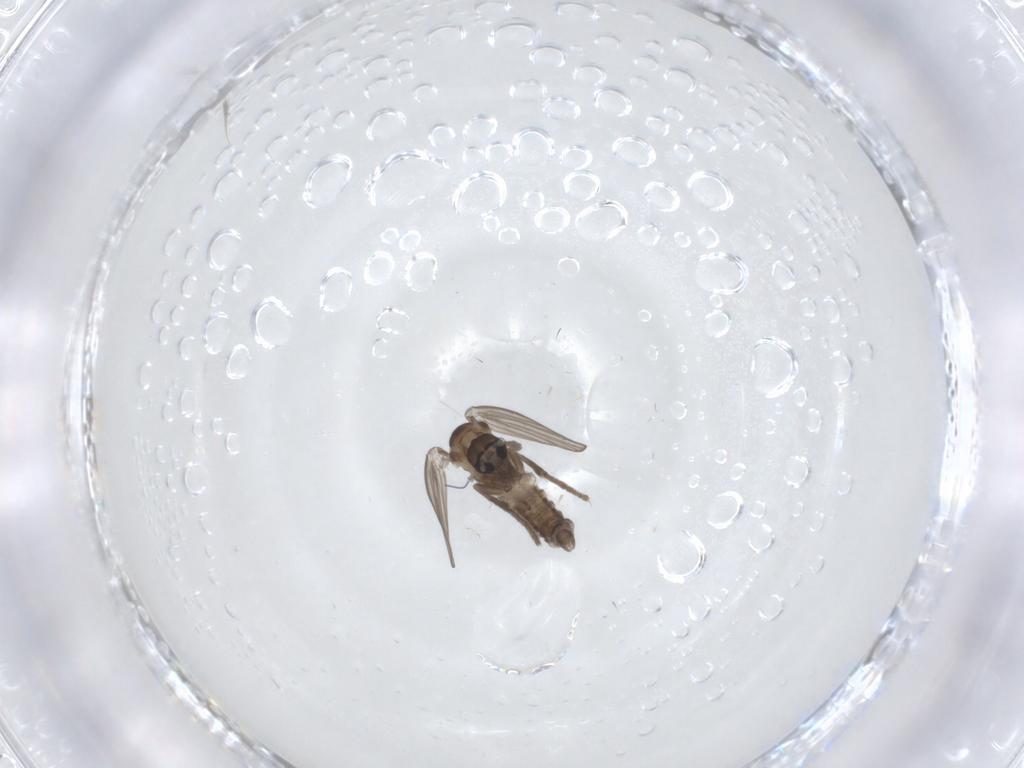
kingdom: Animalia
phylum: Arthropoda
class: Insecta
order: Diptera
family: Psychodidae
